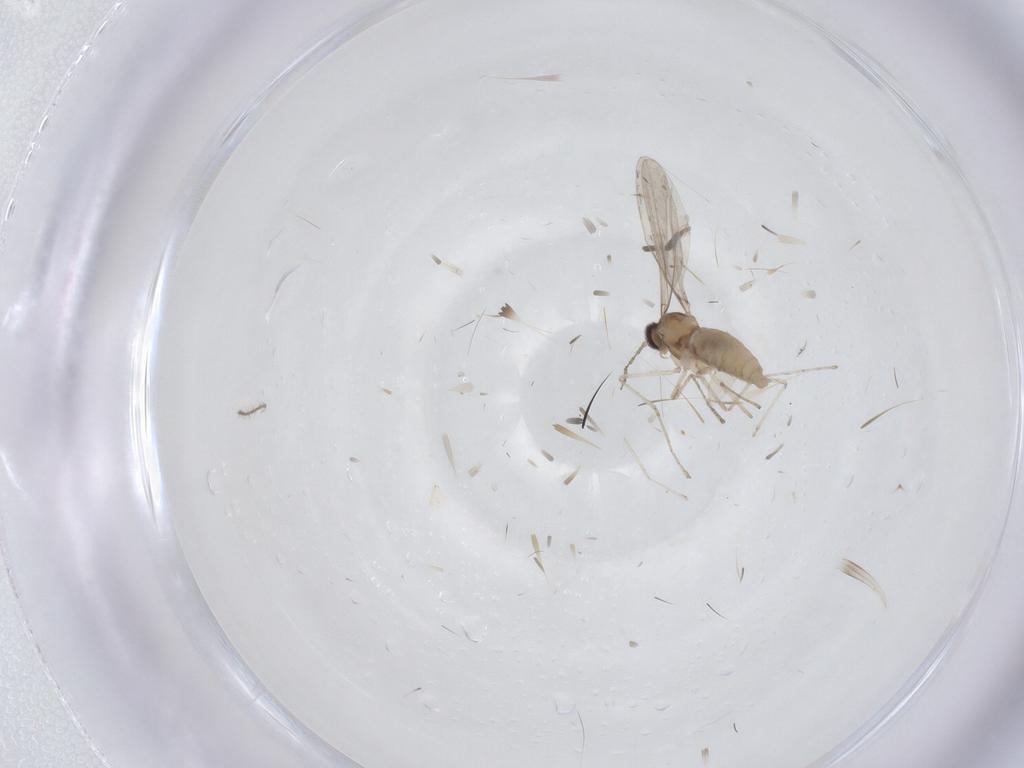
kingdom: Animalia
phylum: Arthropoda
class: Insecta
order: Diptera
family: Cecidomyiidae
